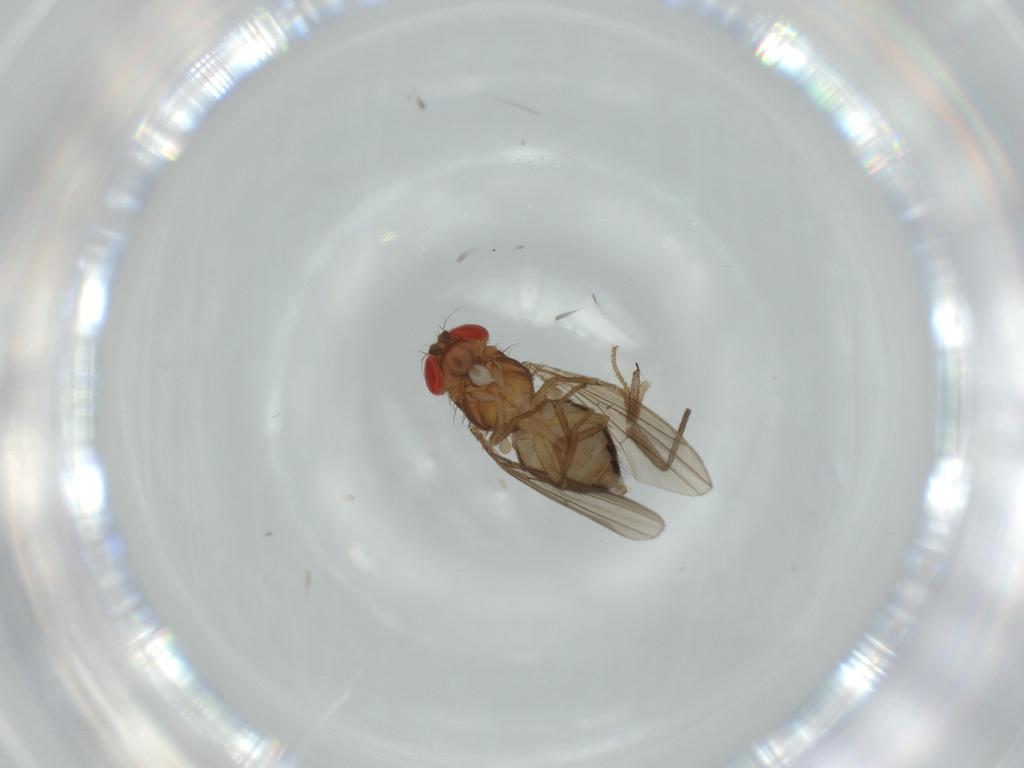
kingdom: Animalia
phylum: Arthropoda
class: Insecta
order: Diptera
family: Drosophilidae
